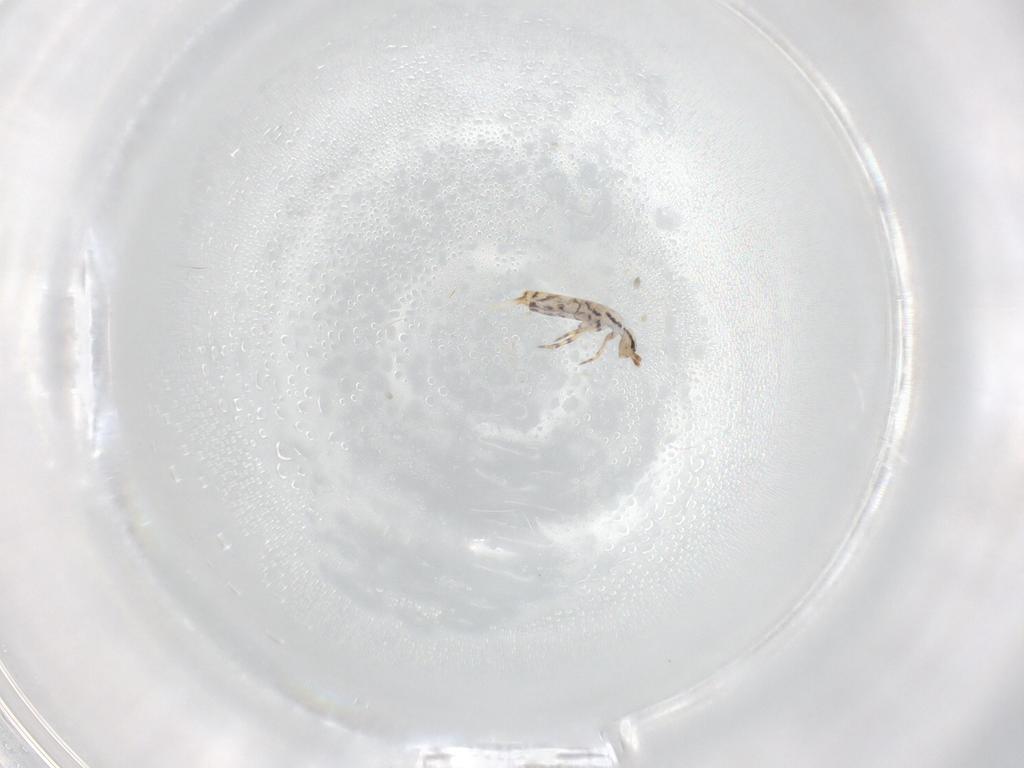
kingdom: Animalia
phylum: Arthropoda
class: Collembola
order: Entomobryomorpha
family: Entomobryidae
